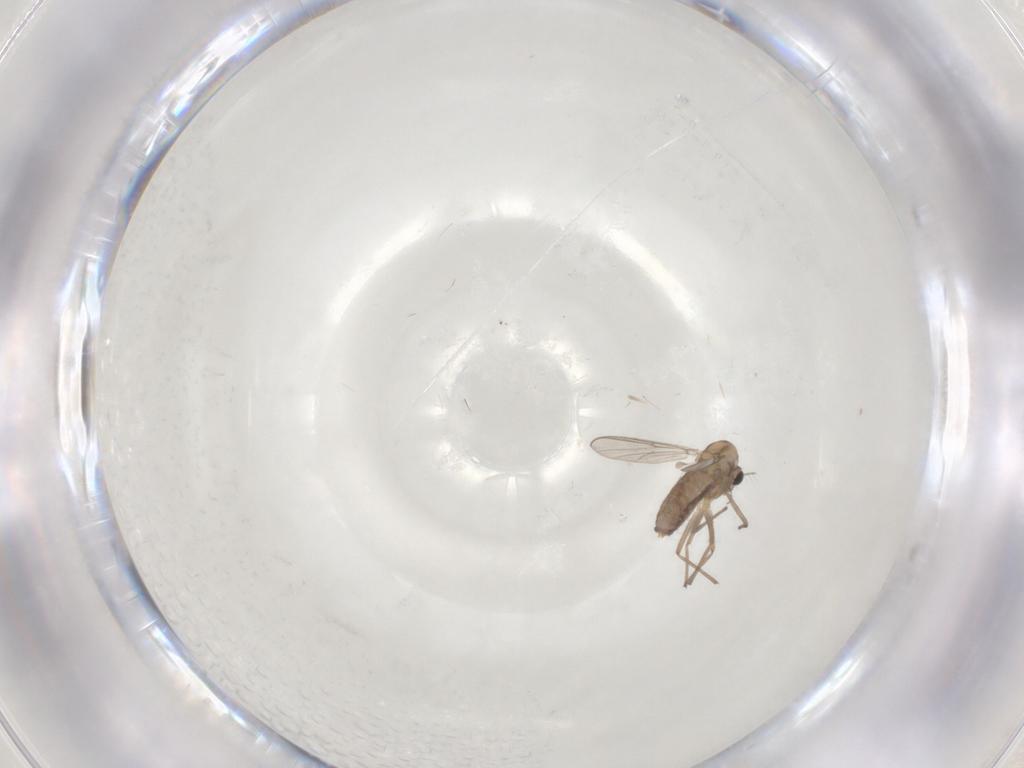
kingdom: Animalia
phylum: Arthropoda
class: Insecta
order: Diptera
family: Chironomidae
